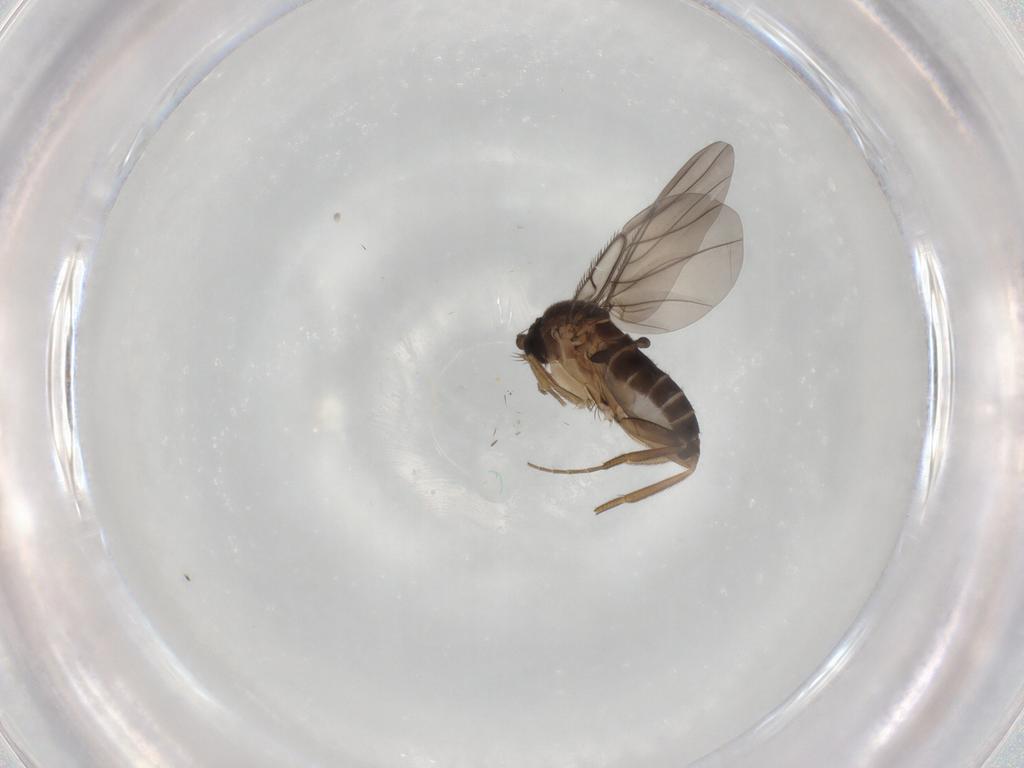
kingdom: Animalia
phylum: Arthropoda
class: Insecta
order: Diptera
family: Phoridae
